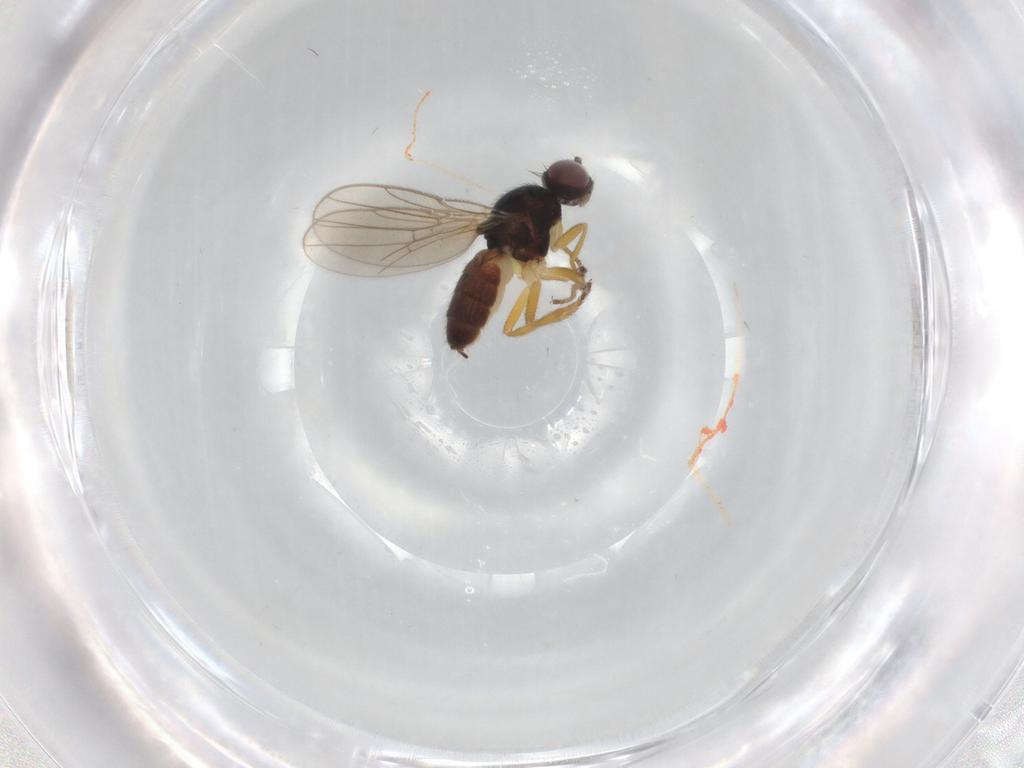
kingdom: Animalia
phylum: Arthropoda
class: Insecta
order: Diptera
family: Chloropidae
